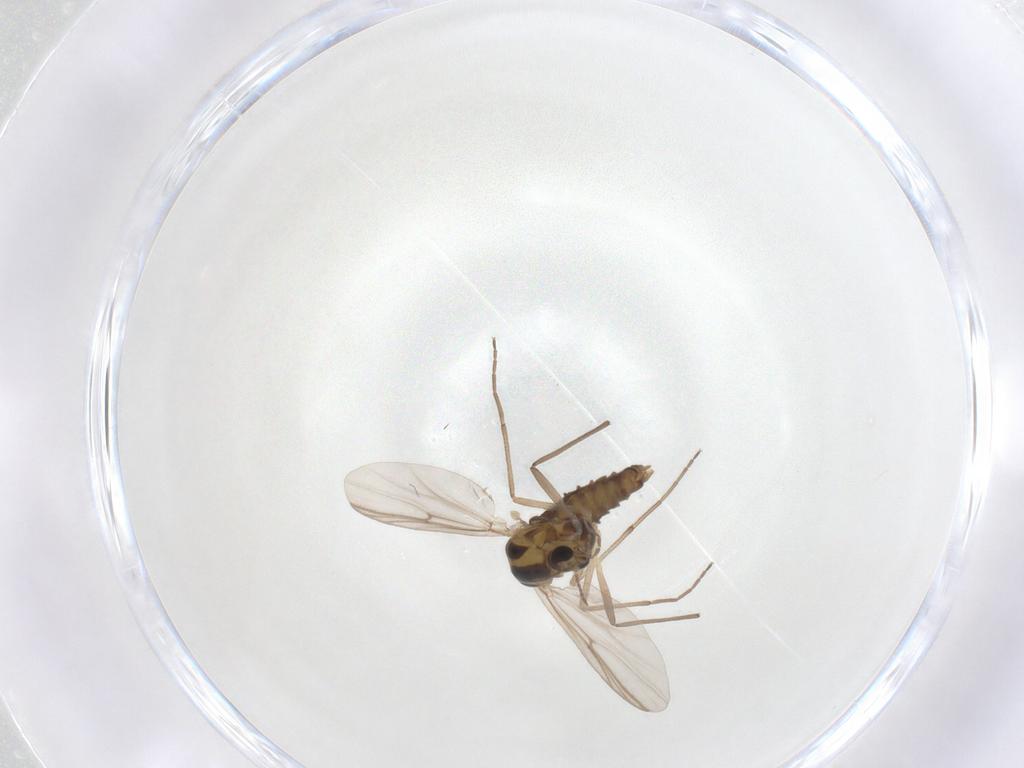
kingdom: Animalia
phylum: Arthropoda
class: Insecta
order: Diptera
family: Chironomidae
